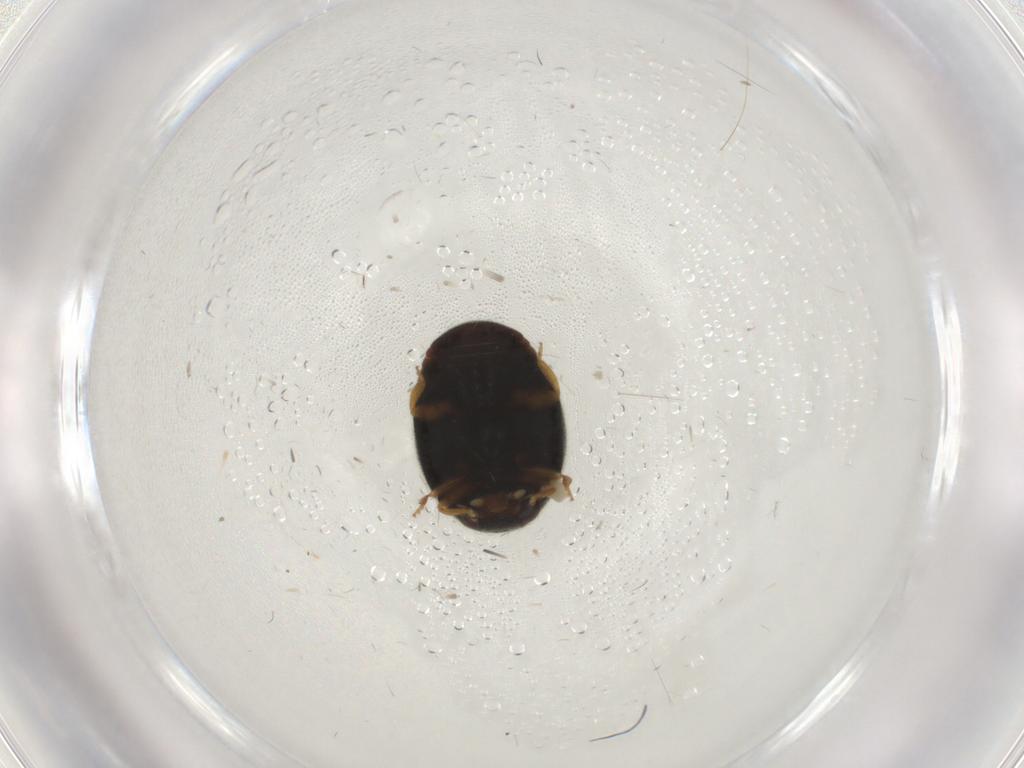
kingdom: Animalia
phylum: Arthropoda
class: Insecta
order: Coleoptera
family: Coccinellidae
